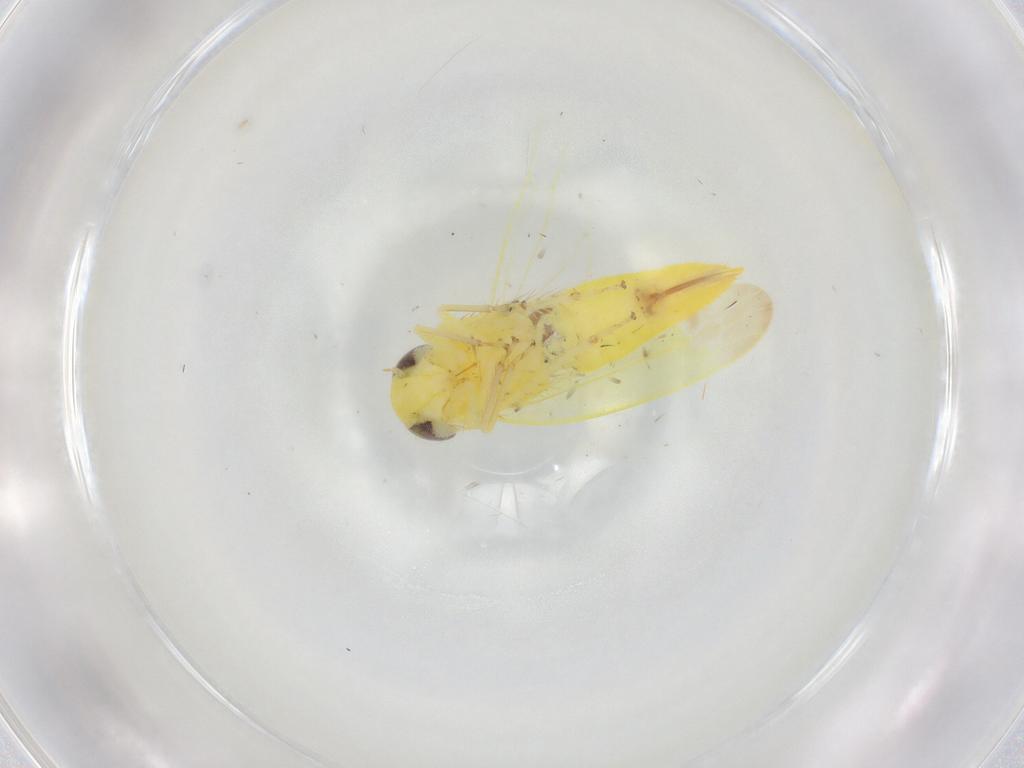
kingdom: Animalia
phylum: Arthropoda
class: Insecta
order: Hemiptera
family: Cicadellidae
